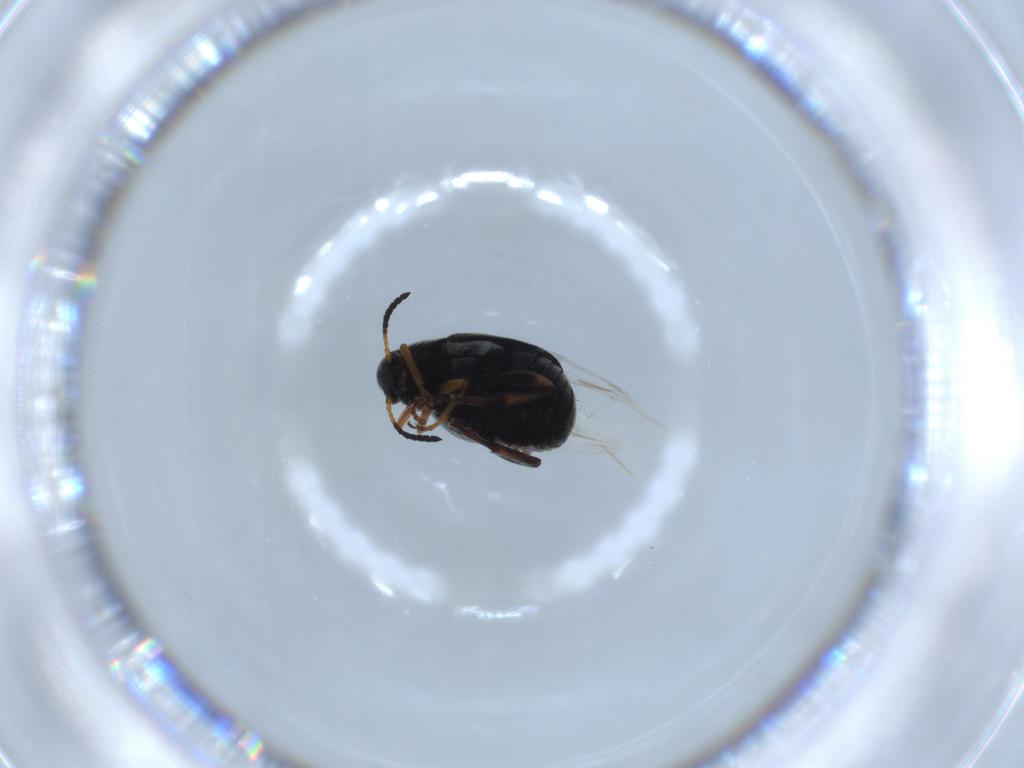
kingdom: Animalia
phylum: Arthropoda
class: Insecta
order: Coleoptera
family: Chrysomelidae
